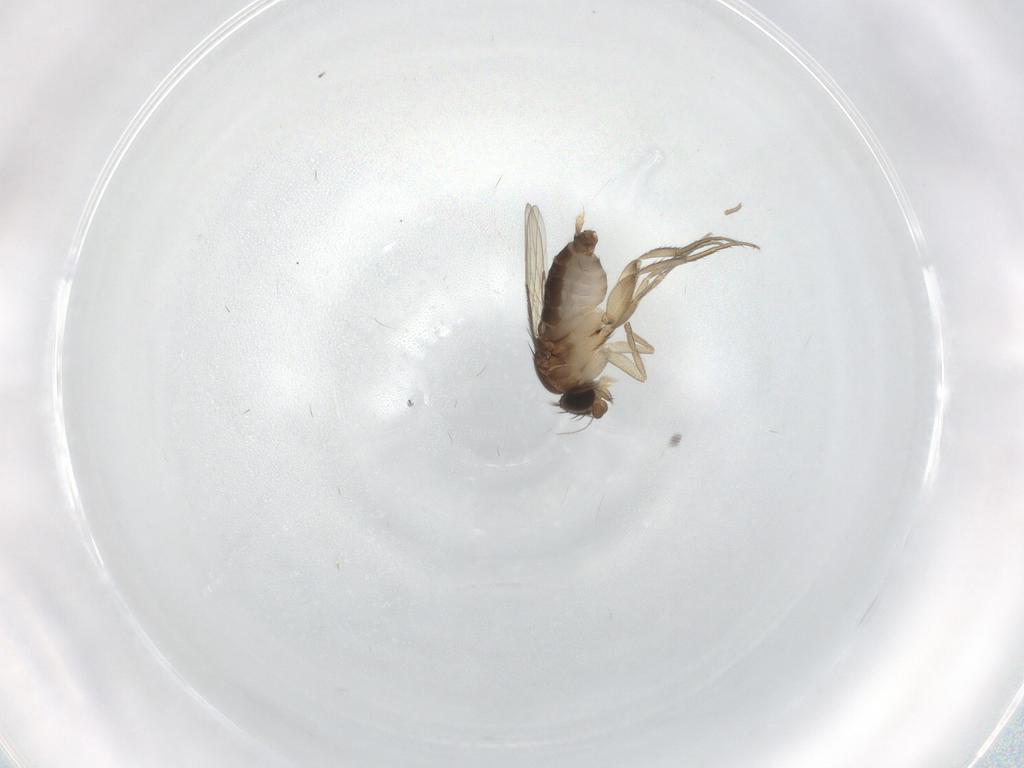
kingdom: Animalia
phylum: Arthropoda
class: Insecta
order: Diptera
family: Phoridae
